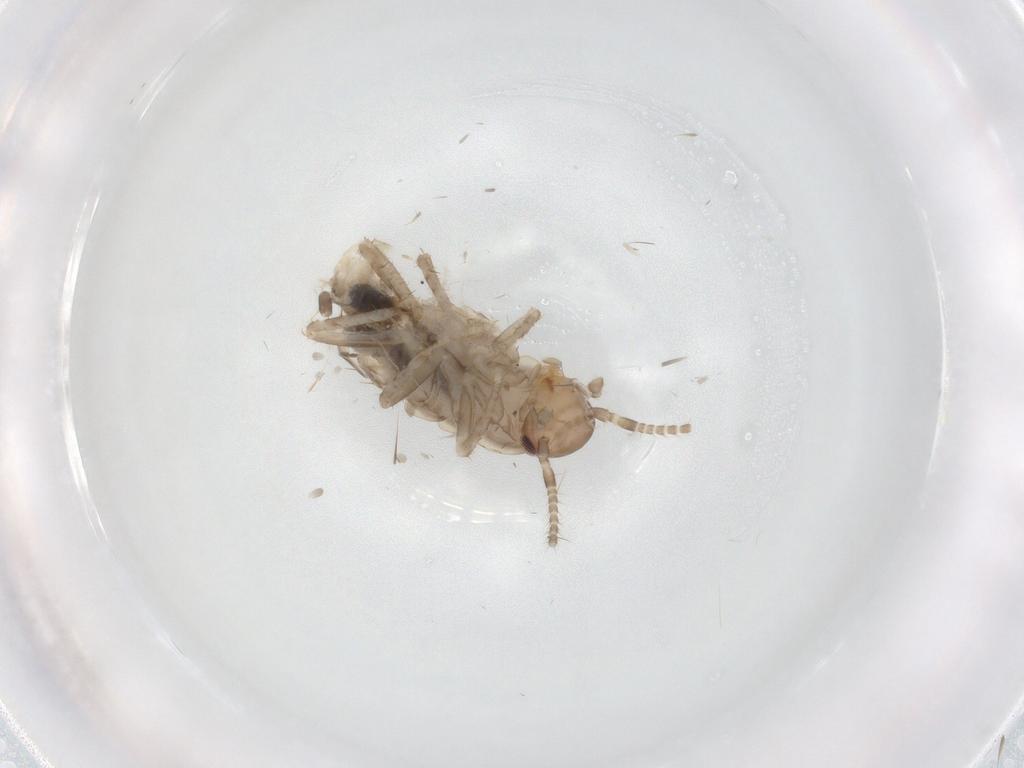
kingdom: Animalia
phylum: Arthropoda
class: Insecta
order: Blattodea
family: Ectobiidae
